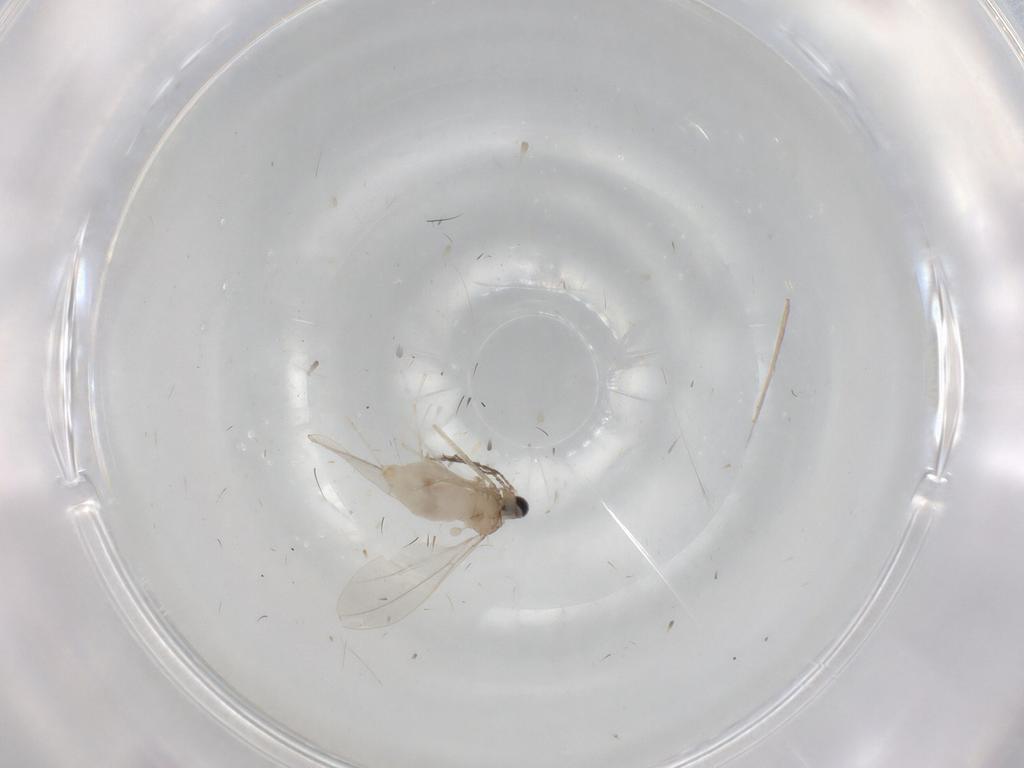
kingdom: Animalia
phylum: Arthropoda
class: Insecta
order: Diptera
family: Cecidomyiidae
